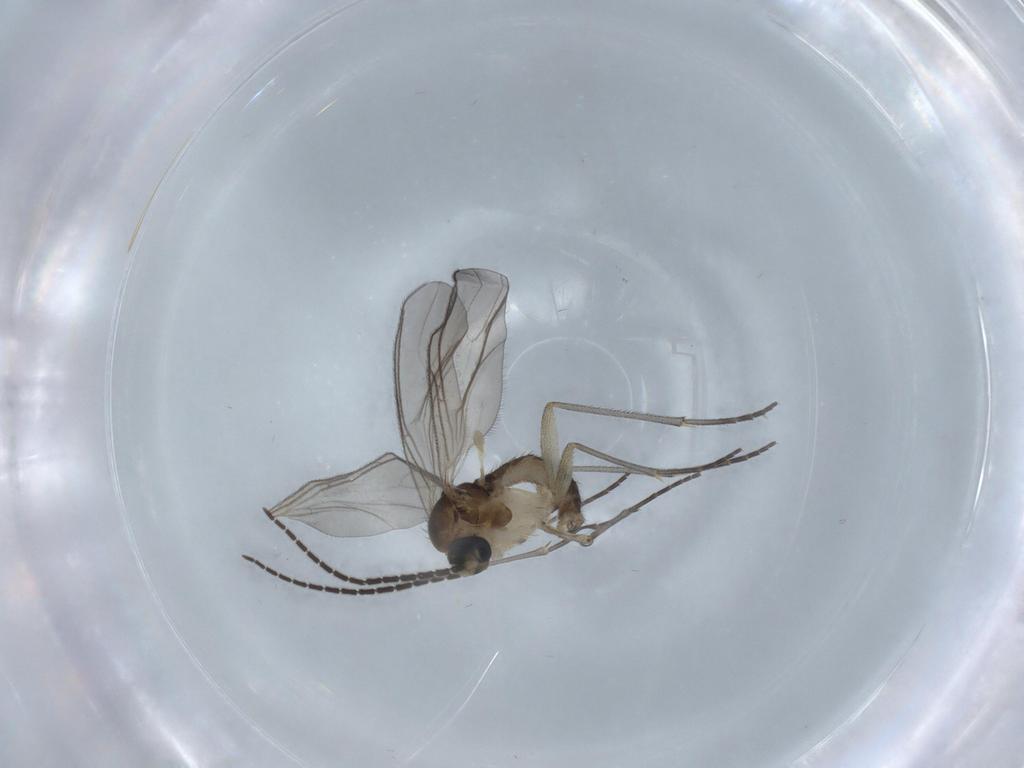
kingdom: Animalia
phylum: Arthropoda
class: Insecta
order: Diptera
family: Sciaridae
